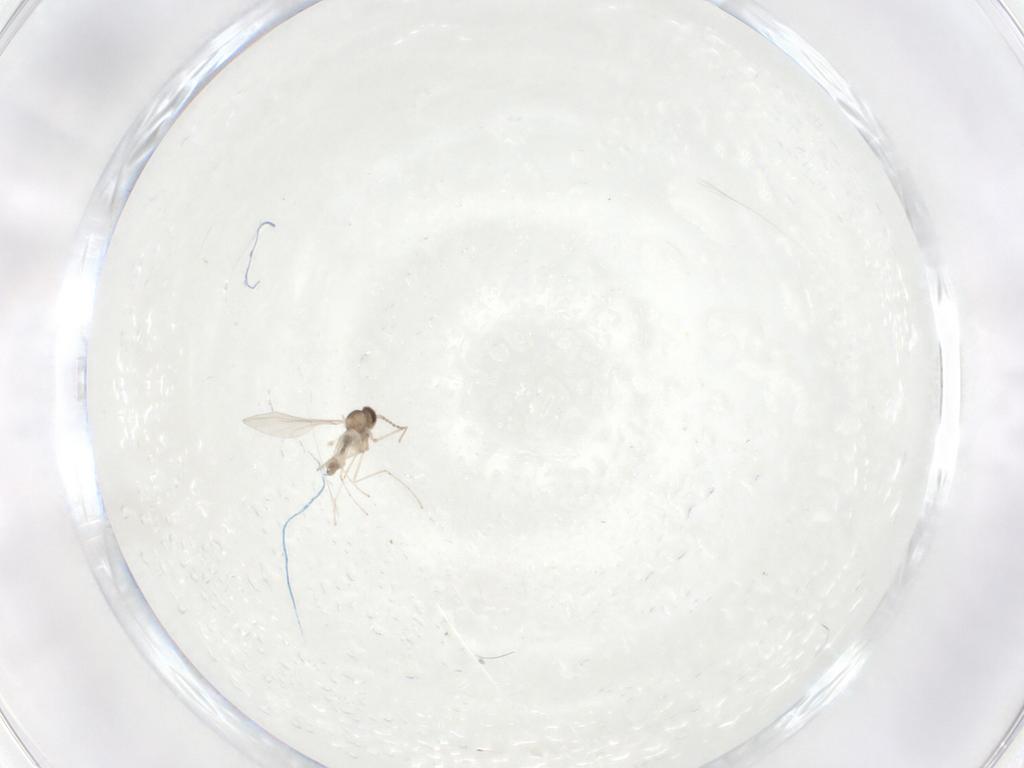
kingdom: Animalia
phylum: Arthropoda
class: Insecta
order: Diptera
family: Cecidomyiidae
